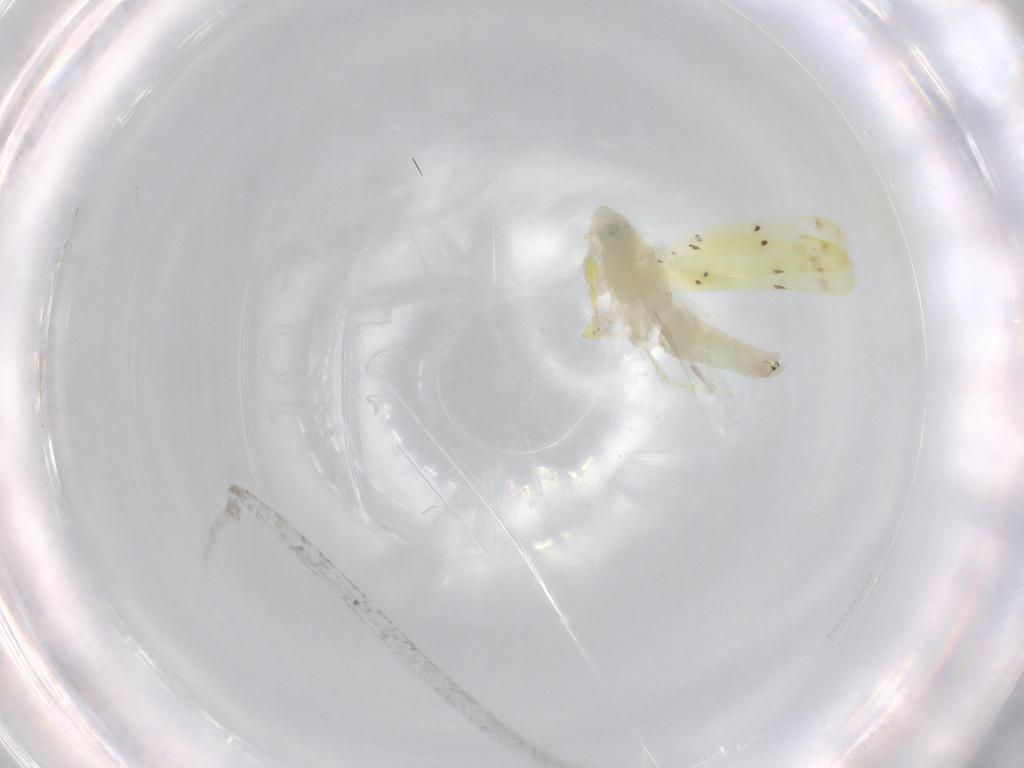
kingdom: Animalia
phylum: Arthropoda
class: Insecta
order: Hemiptera
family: Cicadellidae
